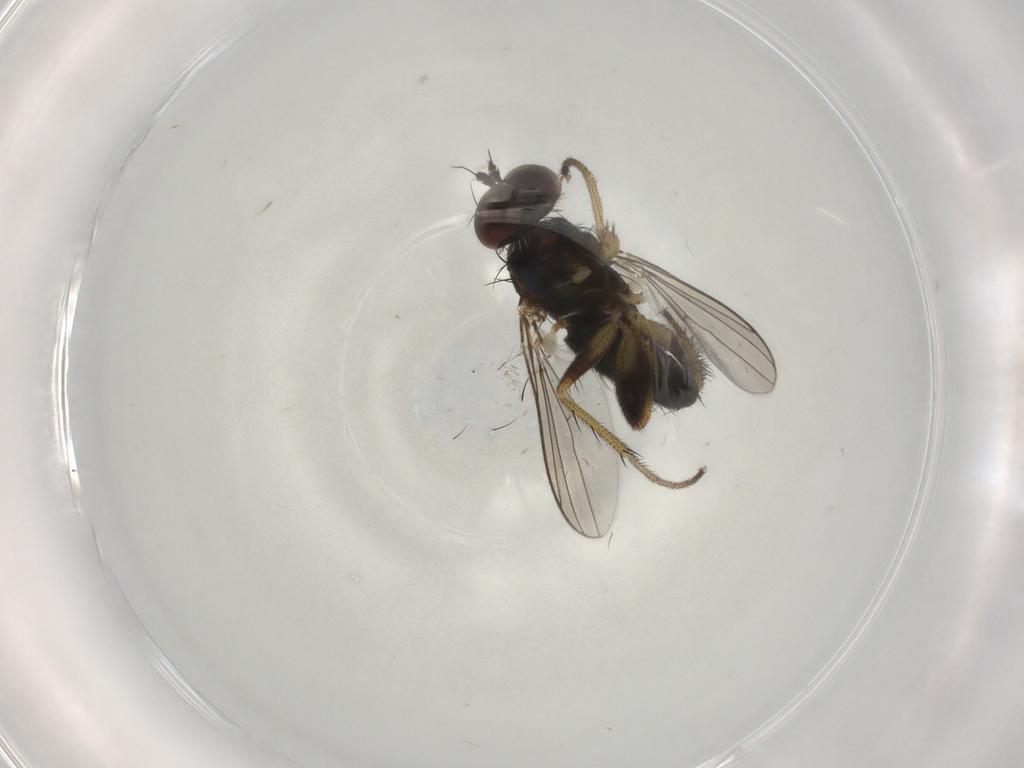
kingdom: Animalia
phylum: Arthropoda
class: Insecta
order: Diptera
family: Dolichopodidae
